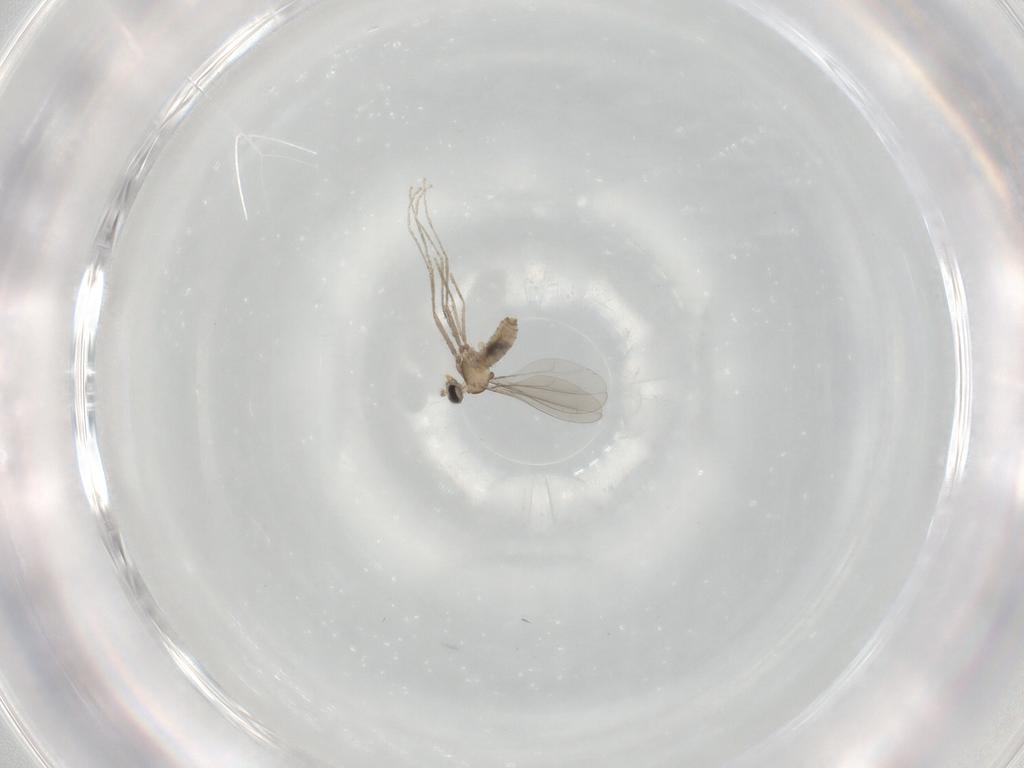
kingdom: Animalia
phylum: Arthropoda
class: Insecta
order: Diptera
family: Cecidomyiidae
